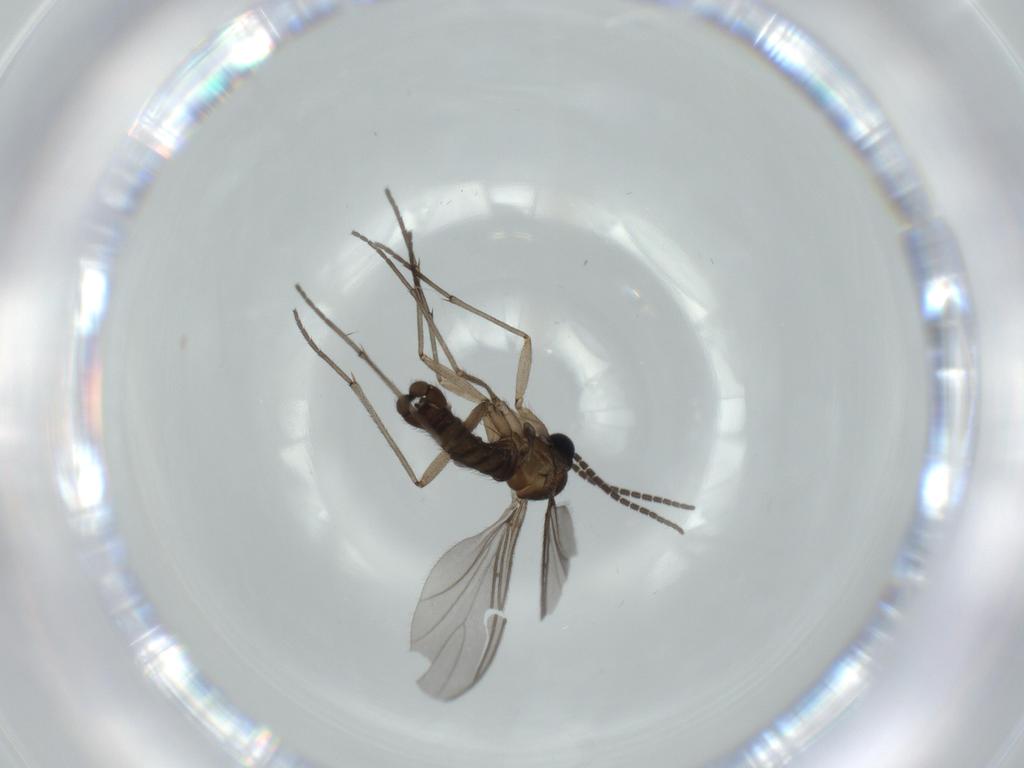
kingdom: Animalia
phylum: Arthropoda
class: Insecta
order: Diptera
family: Sciaridae
